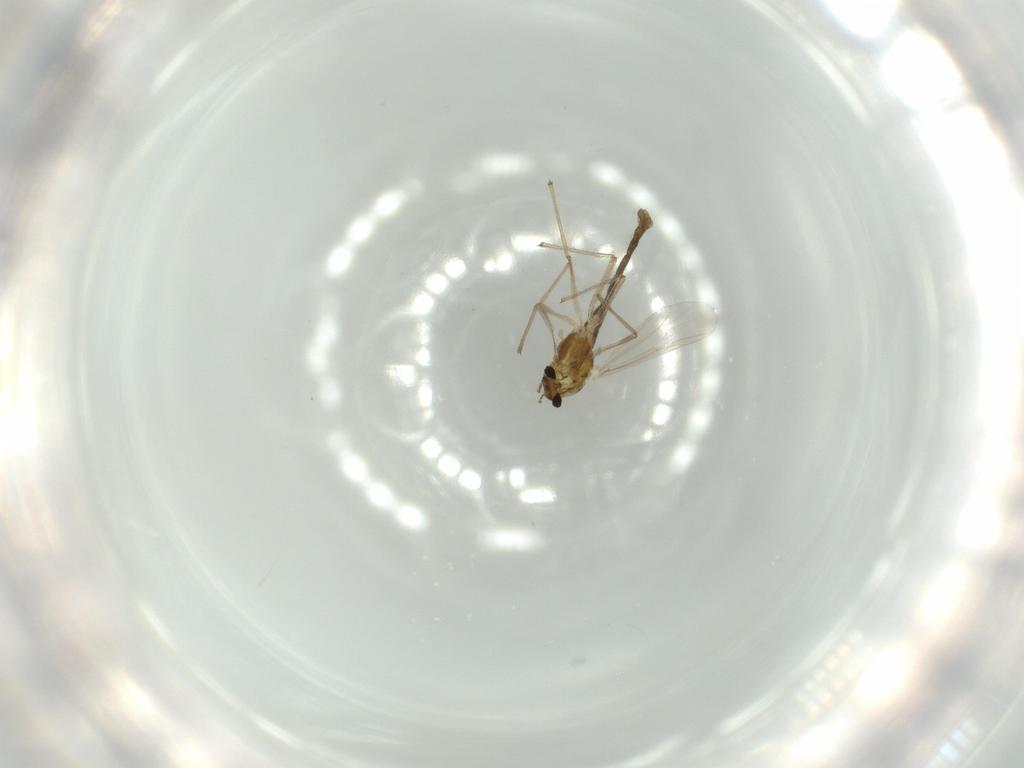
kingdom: Animalia
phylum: Arthropoda
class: Insecta
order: Diptera
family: Chironomidae
